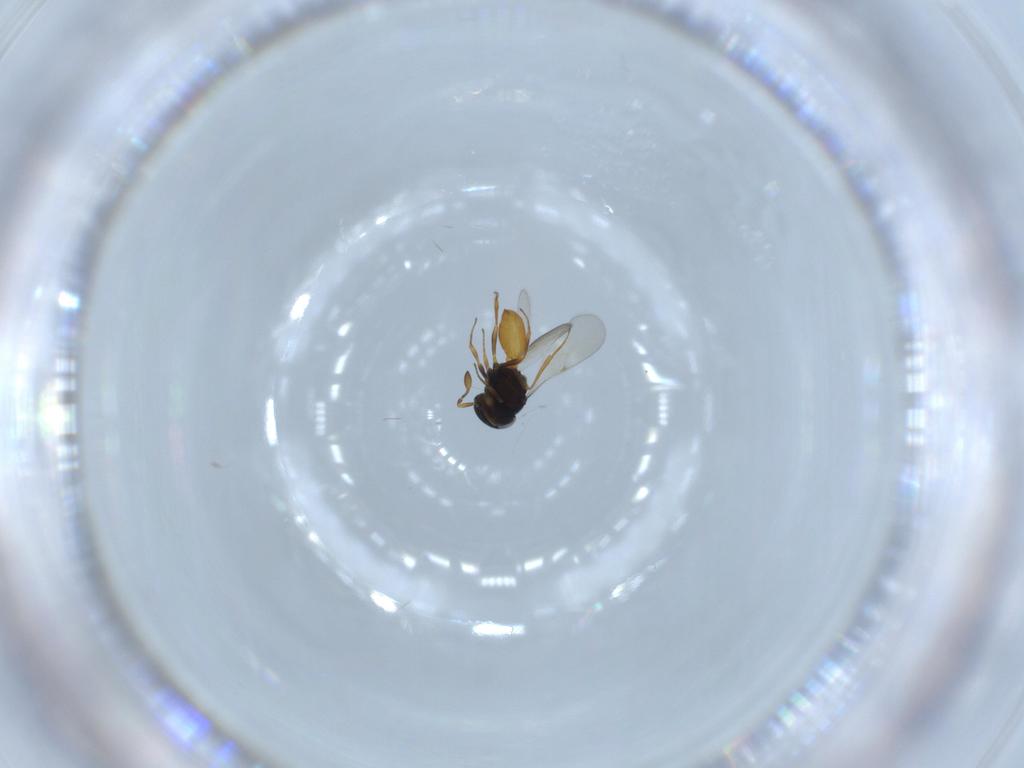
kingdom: Animalia
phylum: Arthropoda
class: Insecta
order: Hymenoptera
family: Scelionidae
